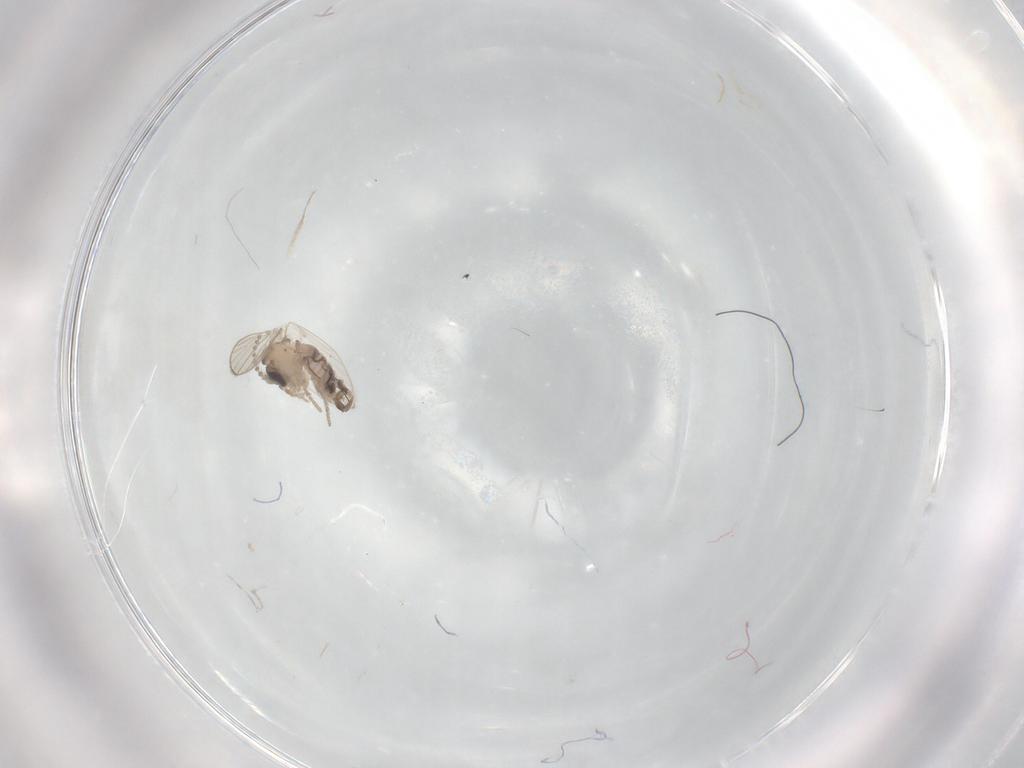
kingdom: Animalia
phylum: Arthropoda
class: Insecta
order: Diptera
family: Psychodidae
